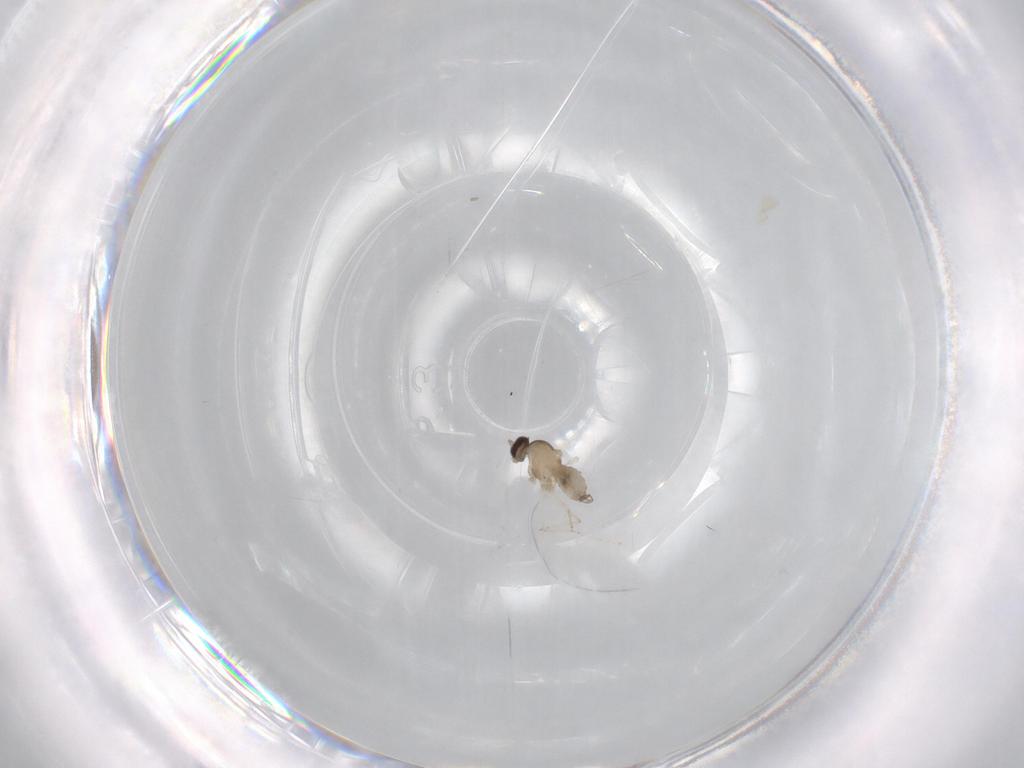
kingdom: Animalia
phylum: Arthropoda
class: Insecta
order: Diptera
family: Cecidomyiidae
